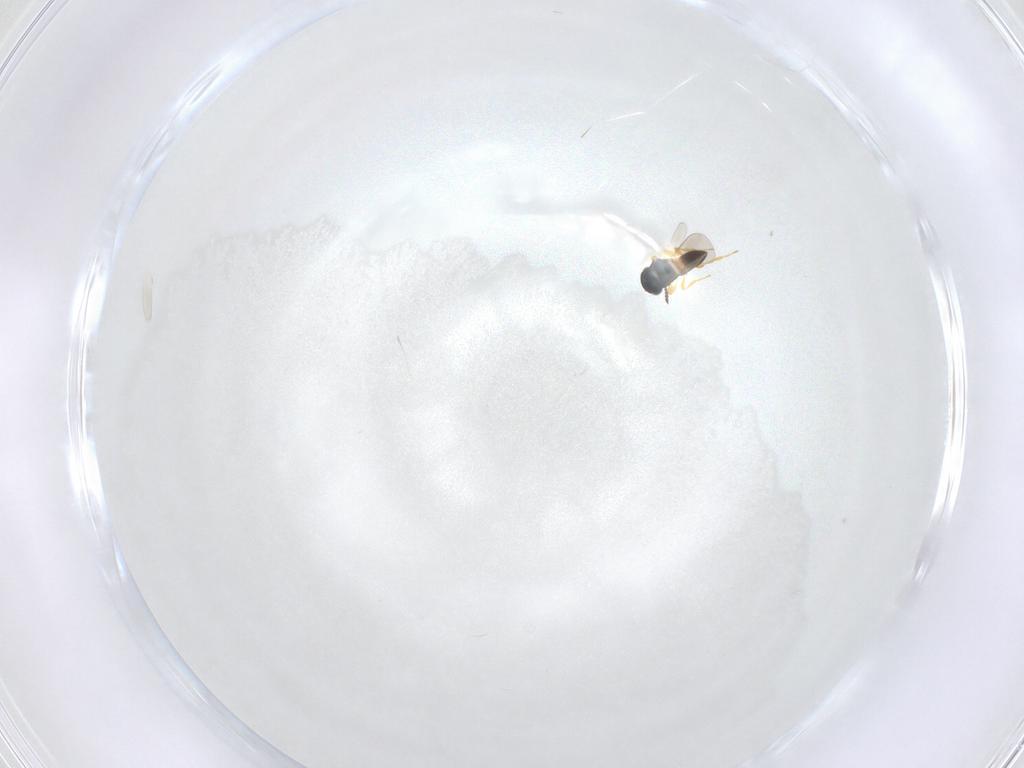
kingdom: Animalia
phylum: Arthropoda
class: Insecta
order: Hymenoptera
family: Platygastridae
